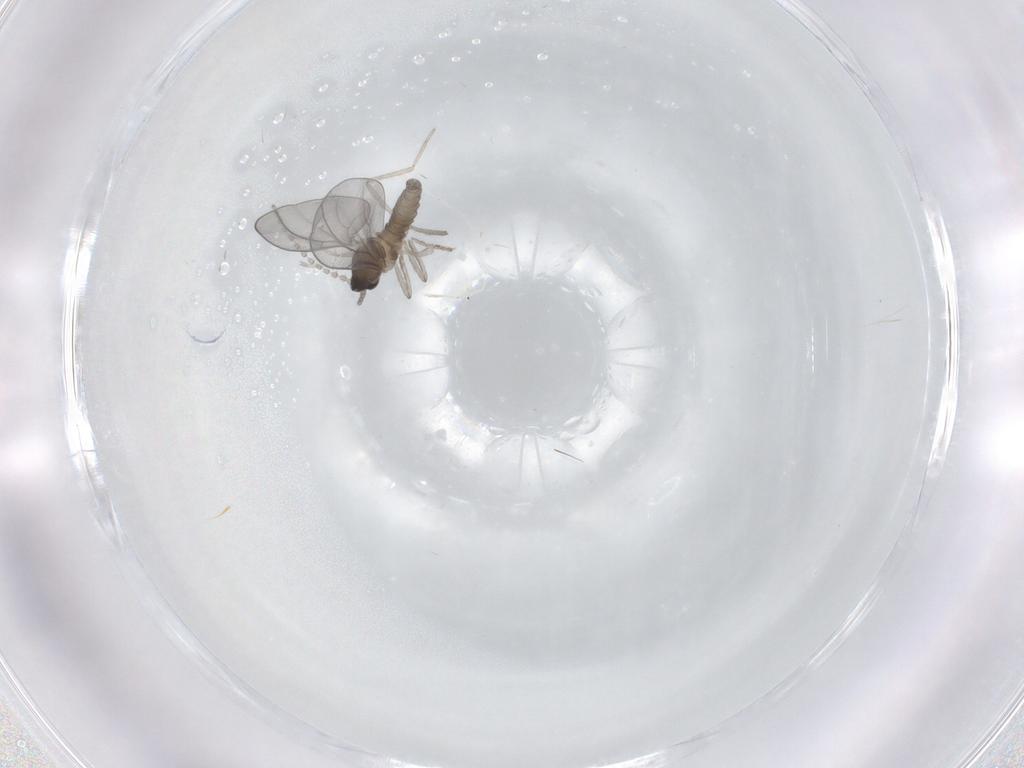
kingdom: Animalia
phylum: Arthropoda
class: Insecta
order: Diptera
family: Cecidomyiidae
